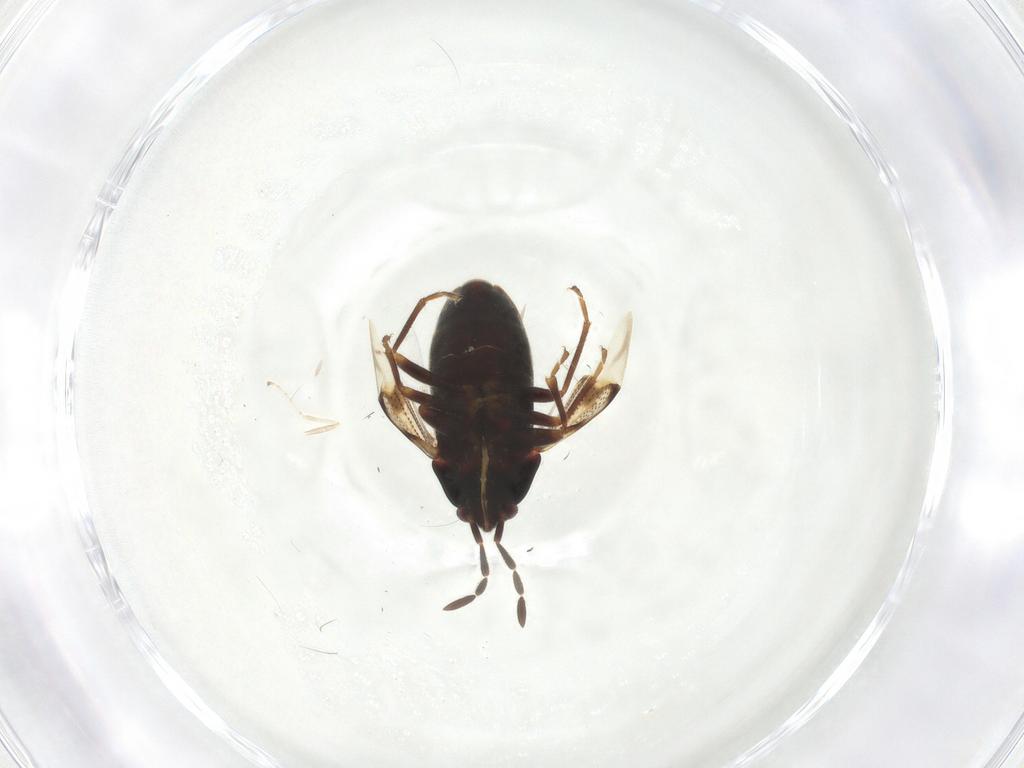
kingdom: Animalia
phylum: Arthropoda
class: Insecta
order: Hemiptera
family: Rhyparochromidae
